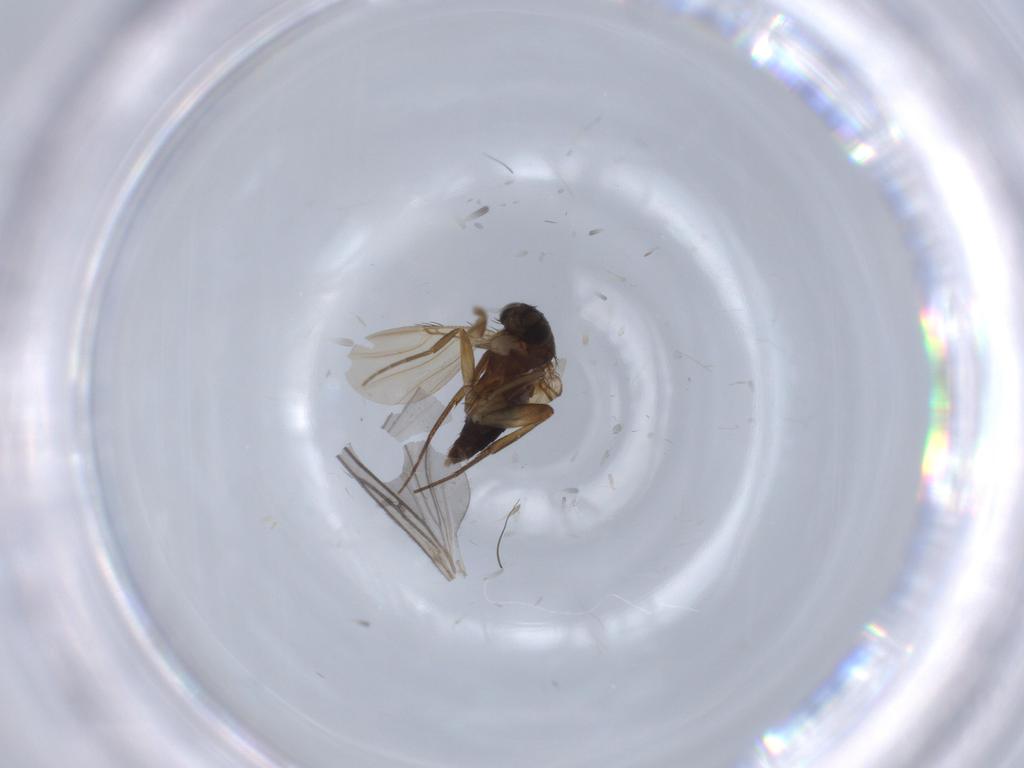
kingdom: Animalia
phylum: Arthropoda
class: Insecta
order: Diptera
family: Phoridae
